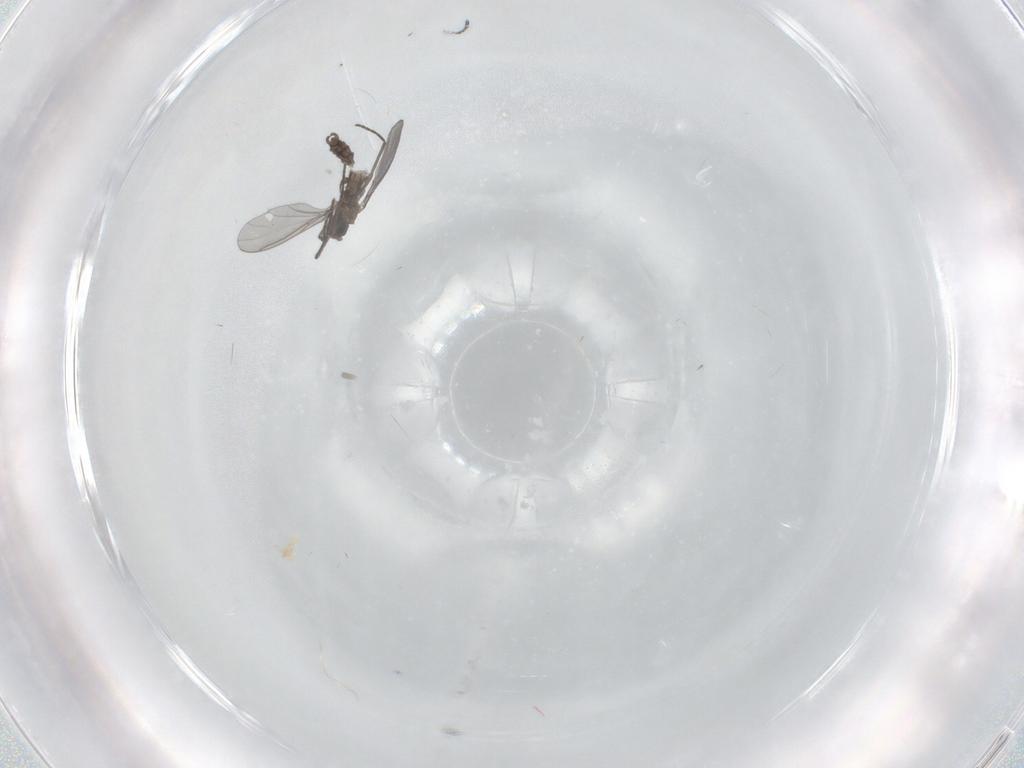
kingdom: Animalia
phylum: Arthropoda
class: Insecta
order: Diptera
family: Sciaridae
